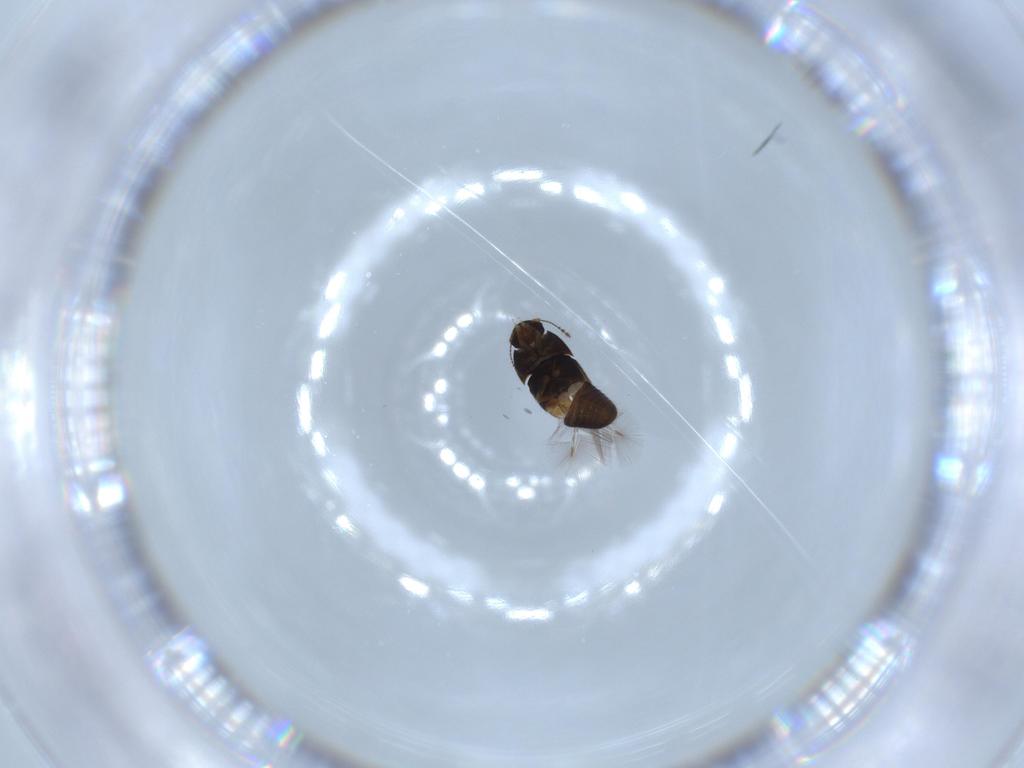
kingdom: Animalia
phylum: Arthropoda
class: Insecta
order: Coleoptera
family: Ptiliidae
